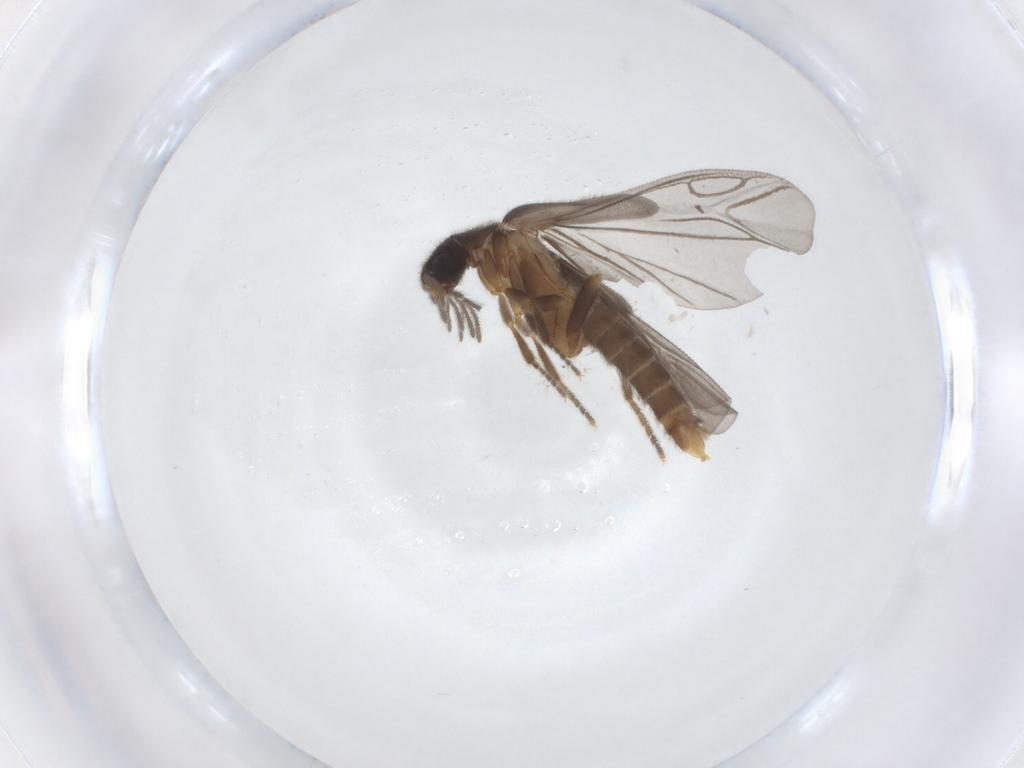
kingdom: Animalia
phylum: Arthropoda
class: Insecta
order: Coleoptera
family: Ptilodactylidae
